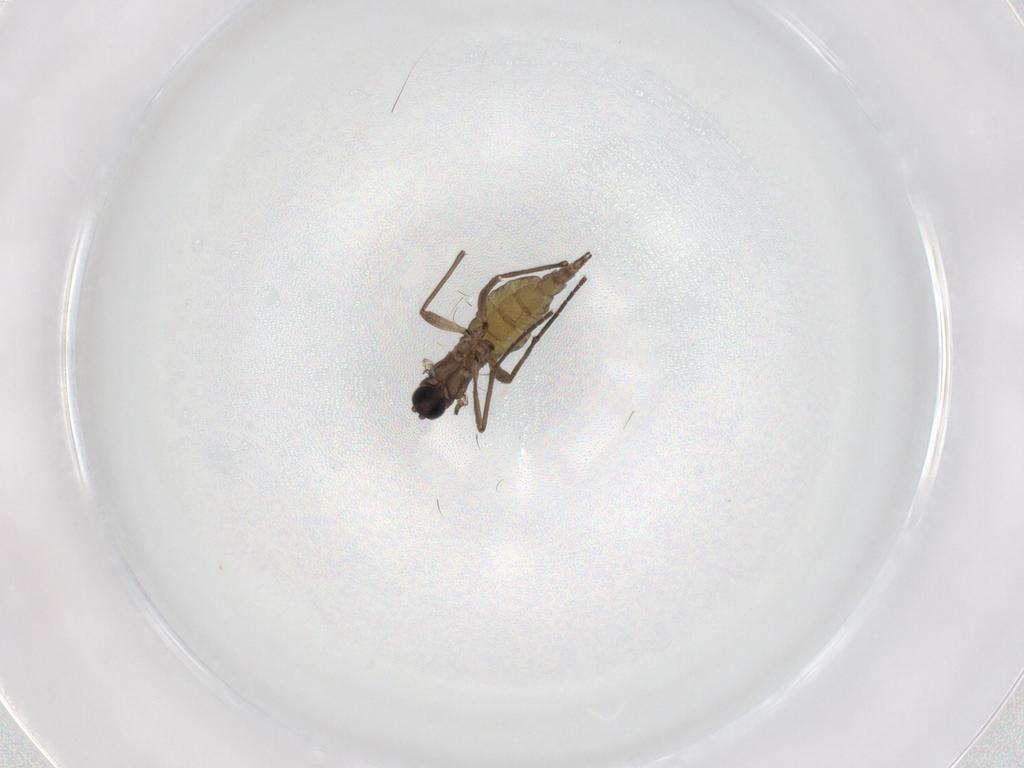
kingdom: Animalia
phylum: Arthropoda
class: Insecta
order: Diptera
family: Sciaridae
